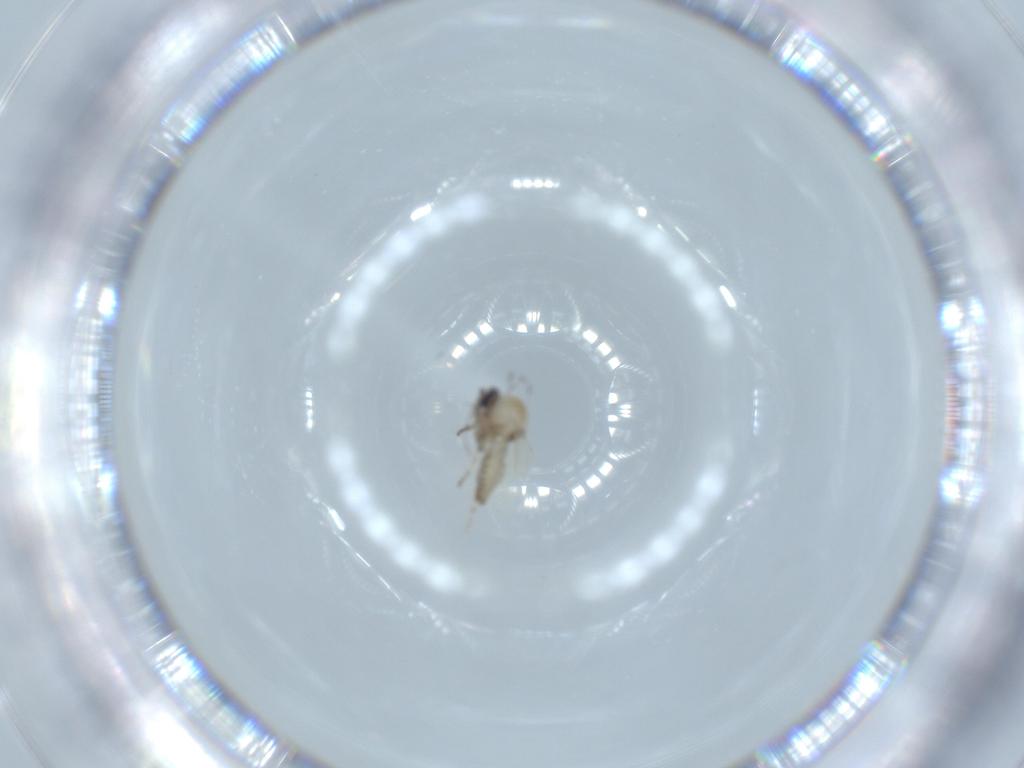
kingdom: Animalia
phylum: Arthropoda
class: Insecta
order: Diptera
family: Ceratopogonidae
